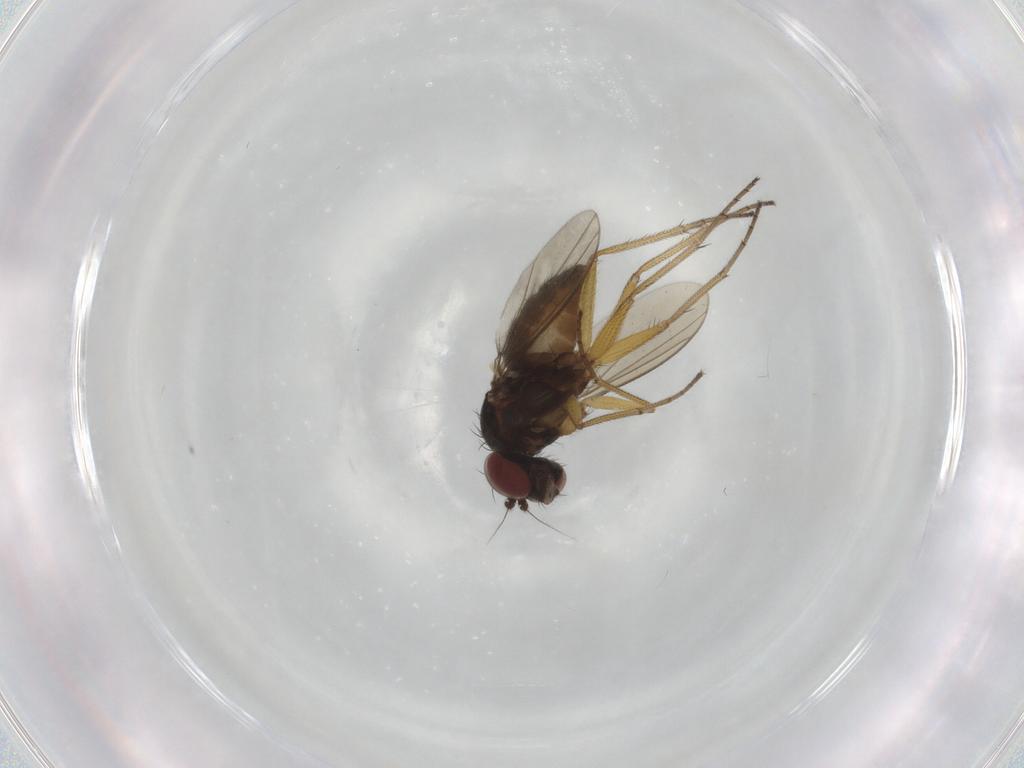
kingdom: Animalia
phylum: Arthropoda
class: Insecta
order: Diptera
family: Dolichopodidae
